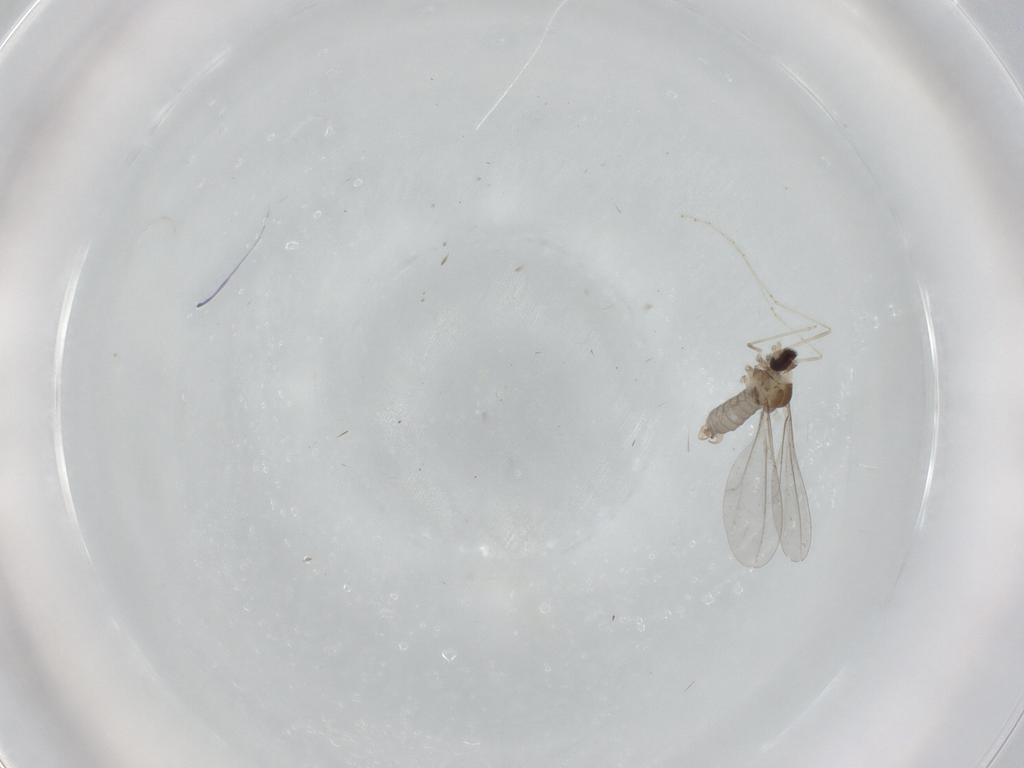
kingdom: Animalia
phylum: Arthropoda
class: Insecta
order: Diptera
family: Cecidomyiidae
